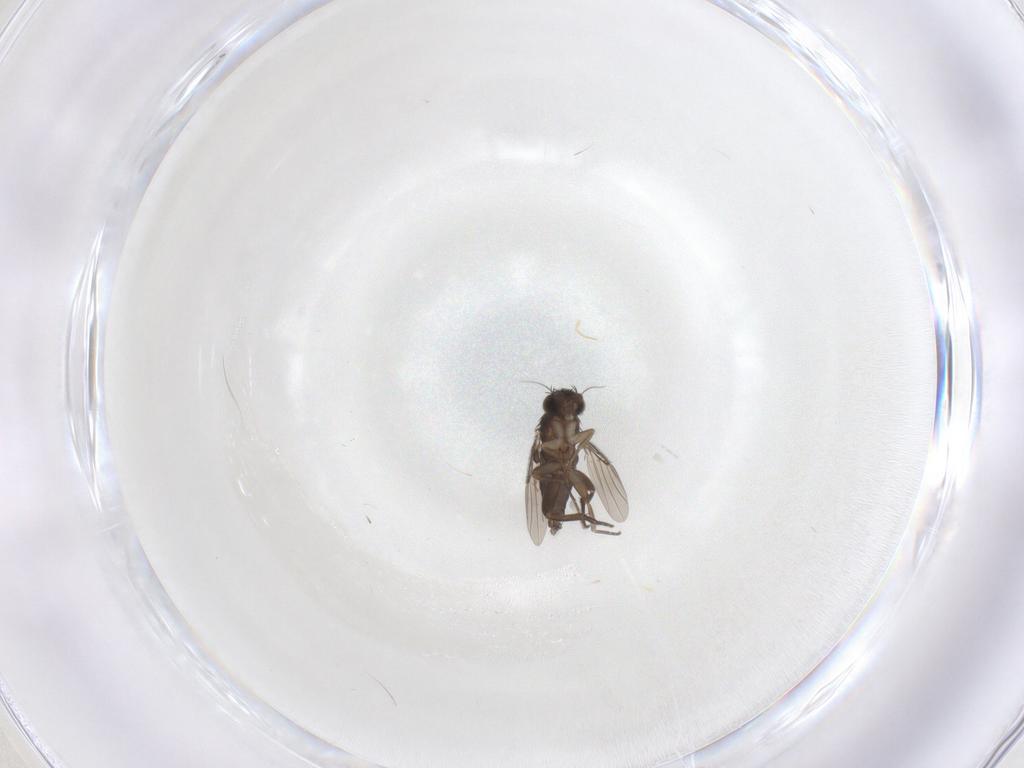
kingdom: Animalia
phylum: Arthropoda
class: Insecta
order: Diptera
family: Phoridae
